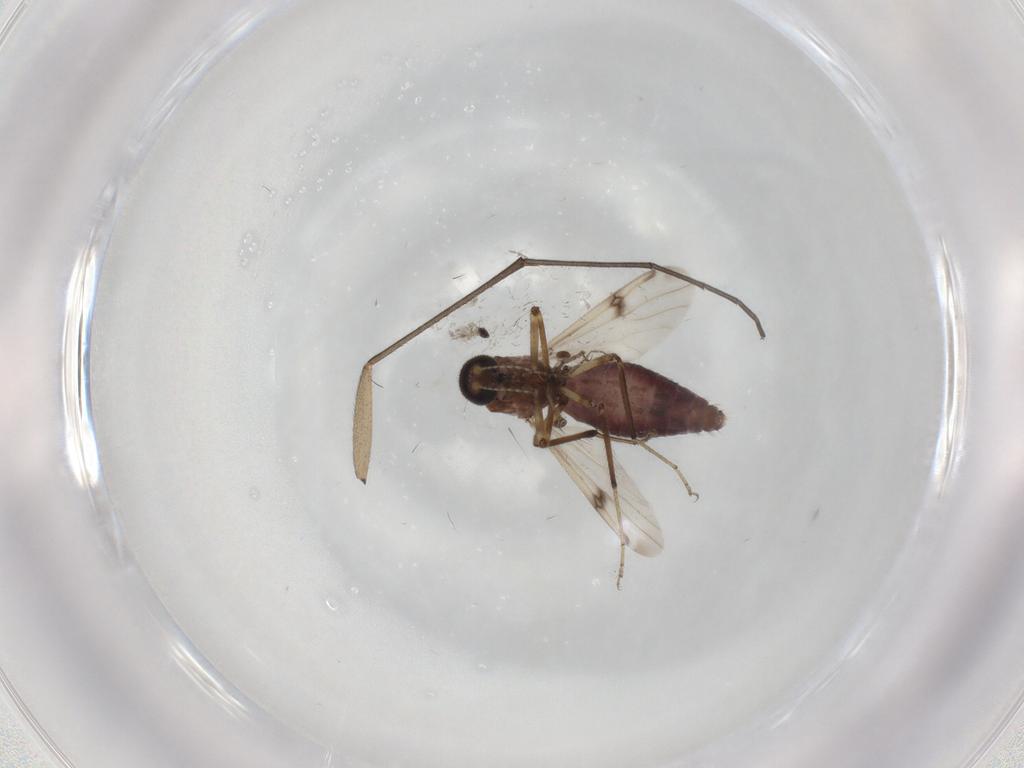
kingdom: Animalia
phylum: Arthropoda
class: Insecta
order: Diptera
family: Sciaridae
